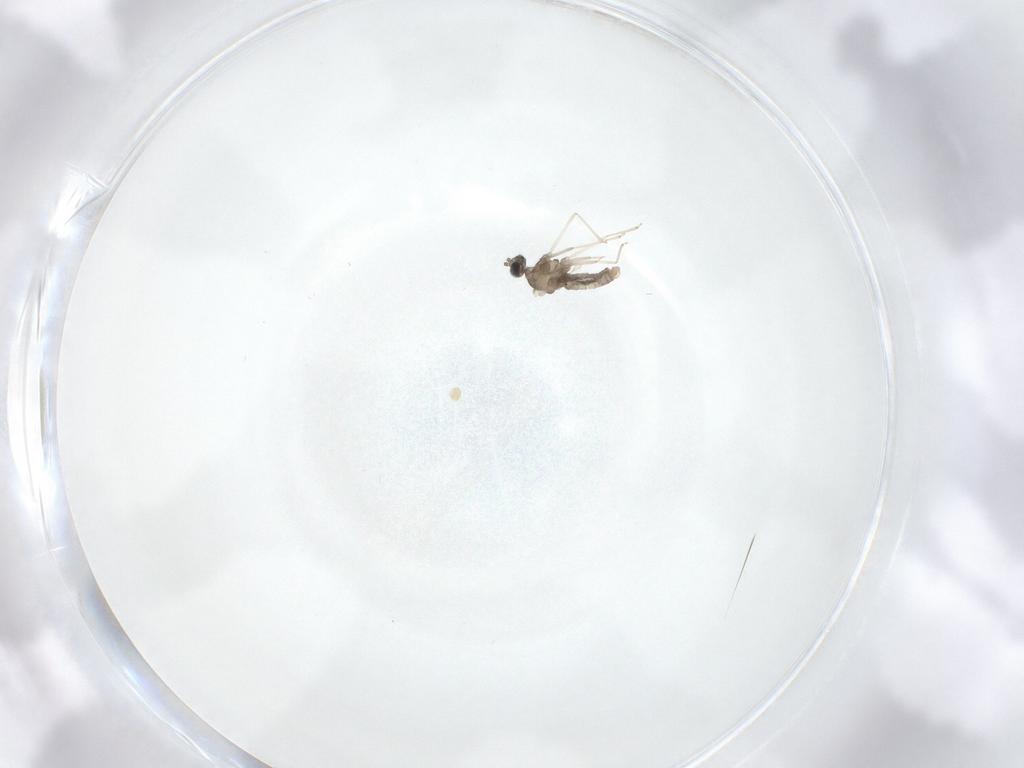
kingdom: Animalia
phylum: Arthropoda
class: Insecta
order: Diptera
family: Cecidomyiidae
